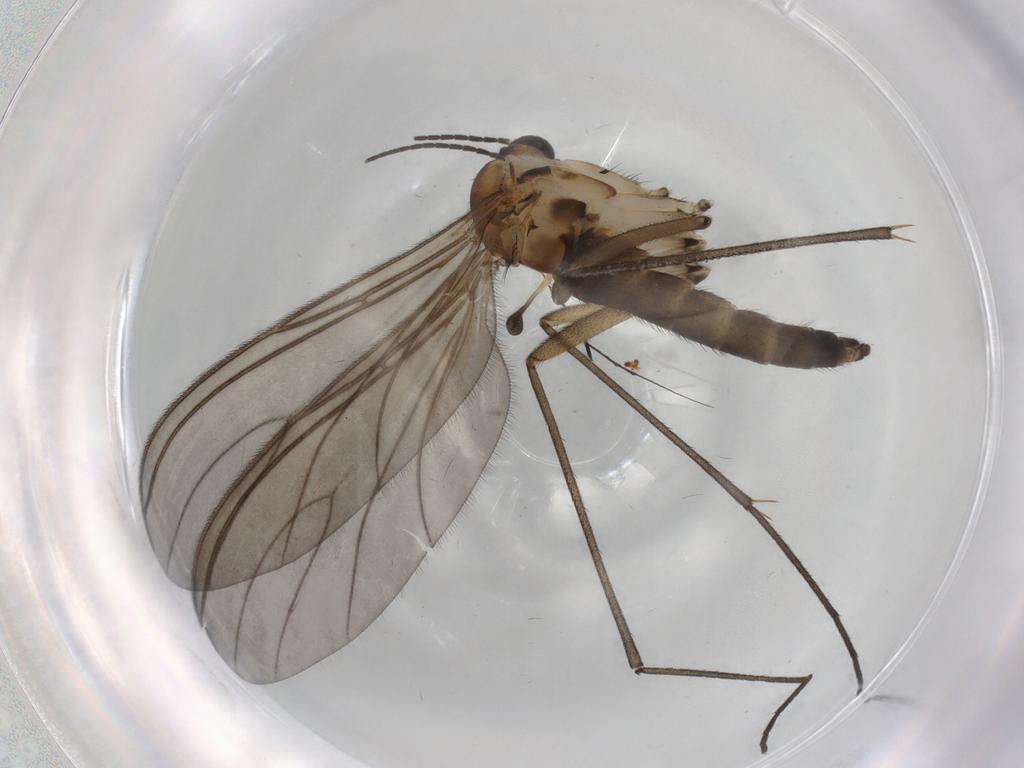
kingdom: Animalia
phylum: Arthropoda
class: Insecta
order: Diptera
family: Sciaridae
